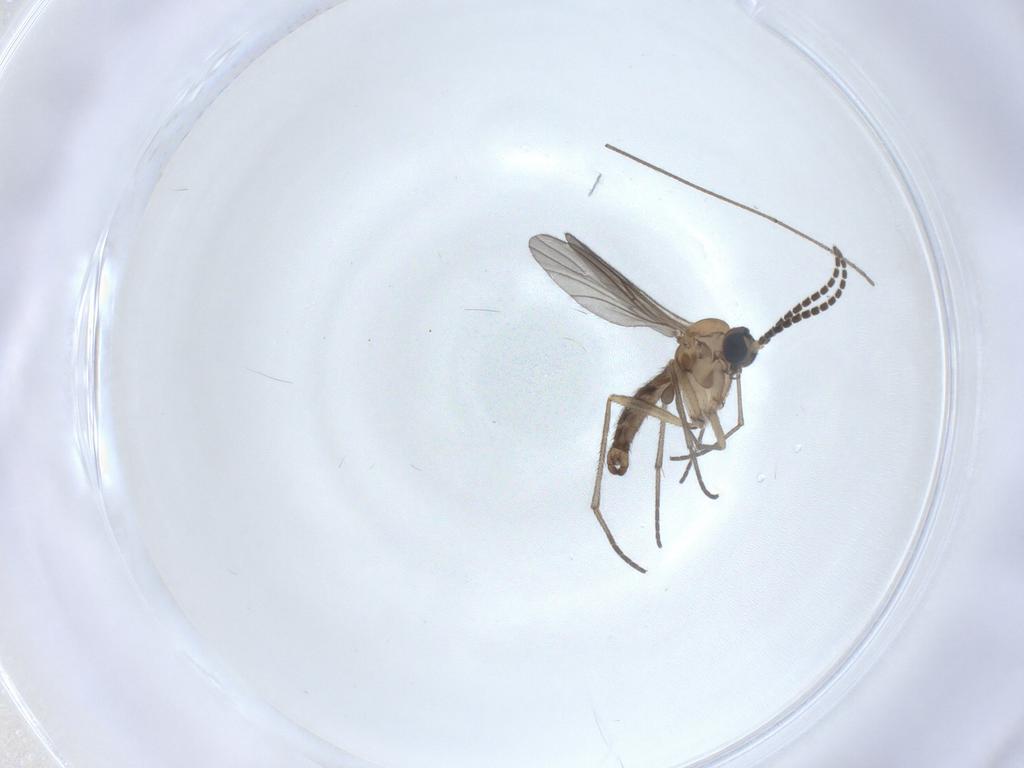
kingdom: Animalia
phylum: Arthropoda
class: Insecta
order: Diptera
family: Sciaridae
